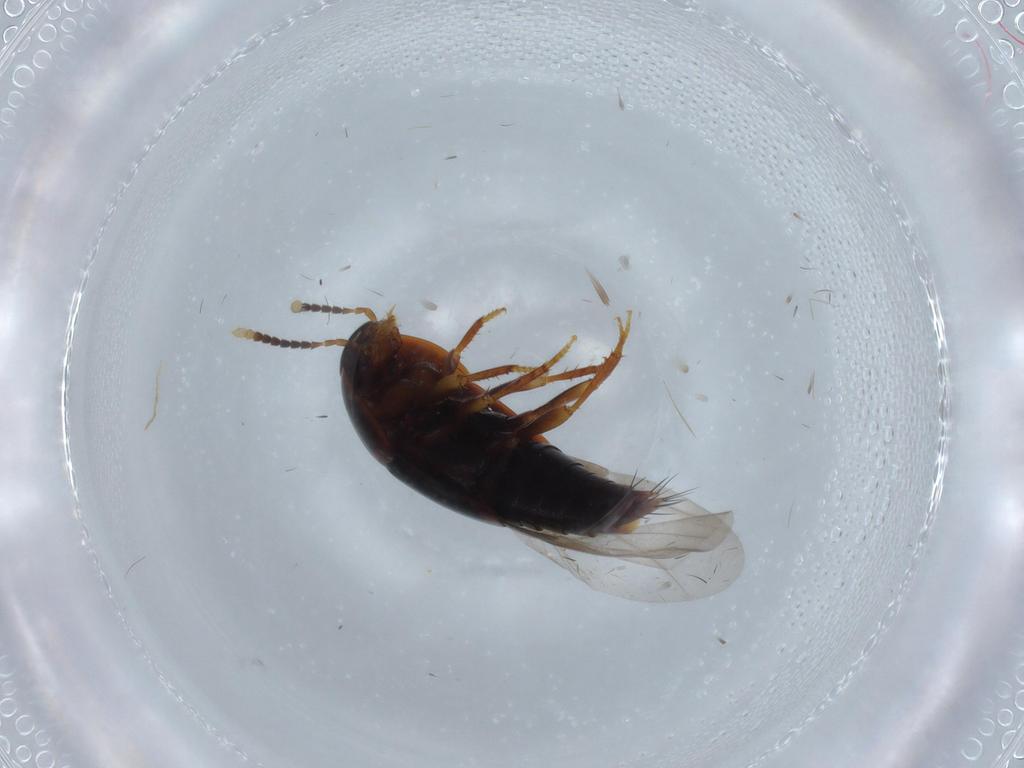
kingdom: Animalia
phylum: Arthropoda
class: Insecta
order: Coleoptera
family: Staphylinidae
